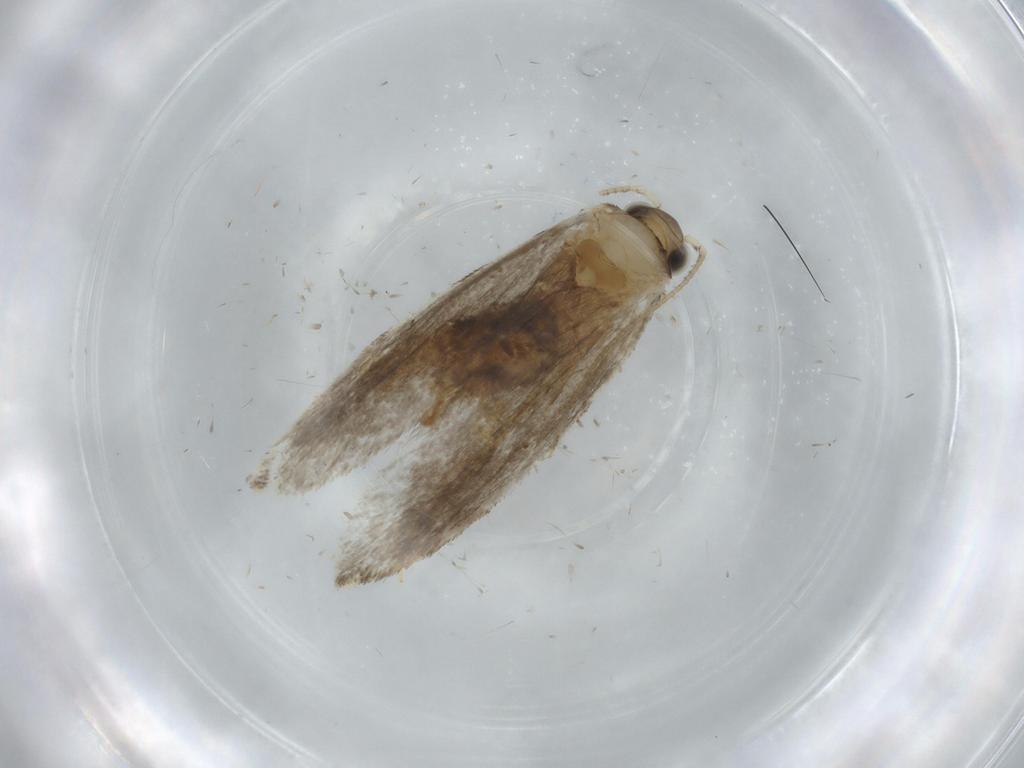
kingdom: Animalia
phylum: Arthropoda
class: Insecta
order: Lepidoptera
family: Tineidae
